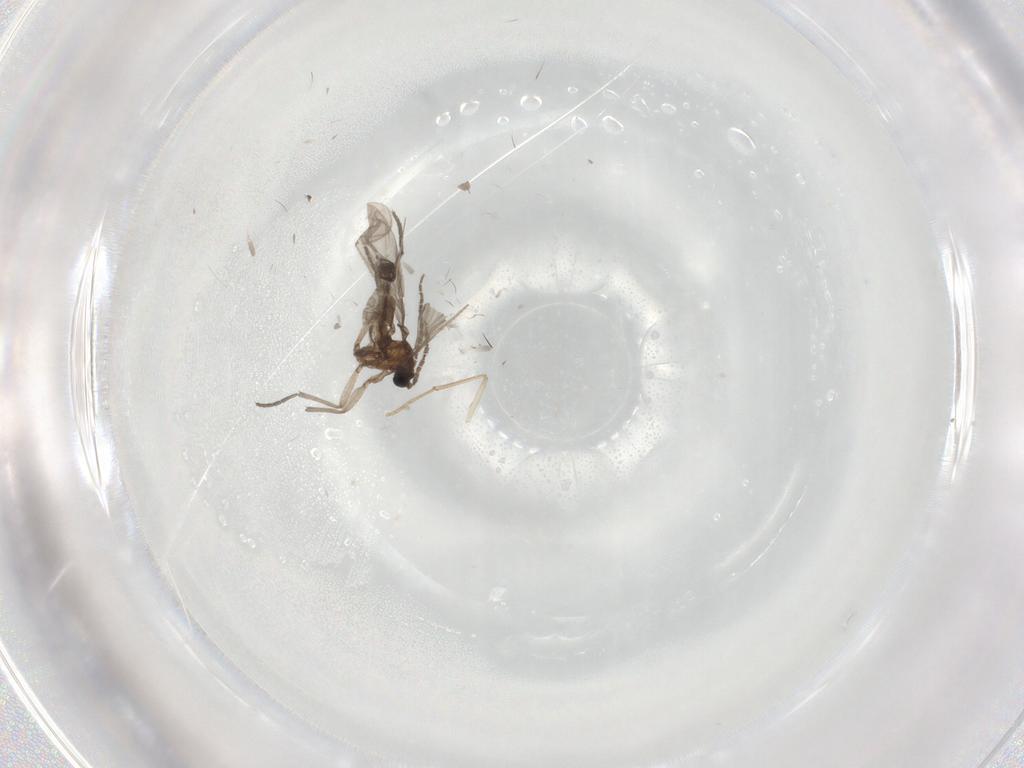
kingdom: Animalia
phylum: Arthropoda
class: Insecta
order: Diptera
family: Sciaridae
